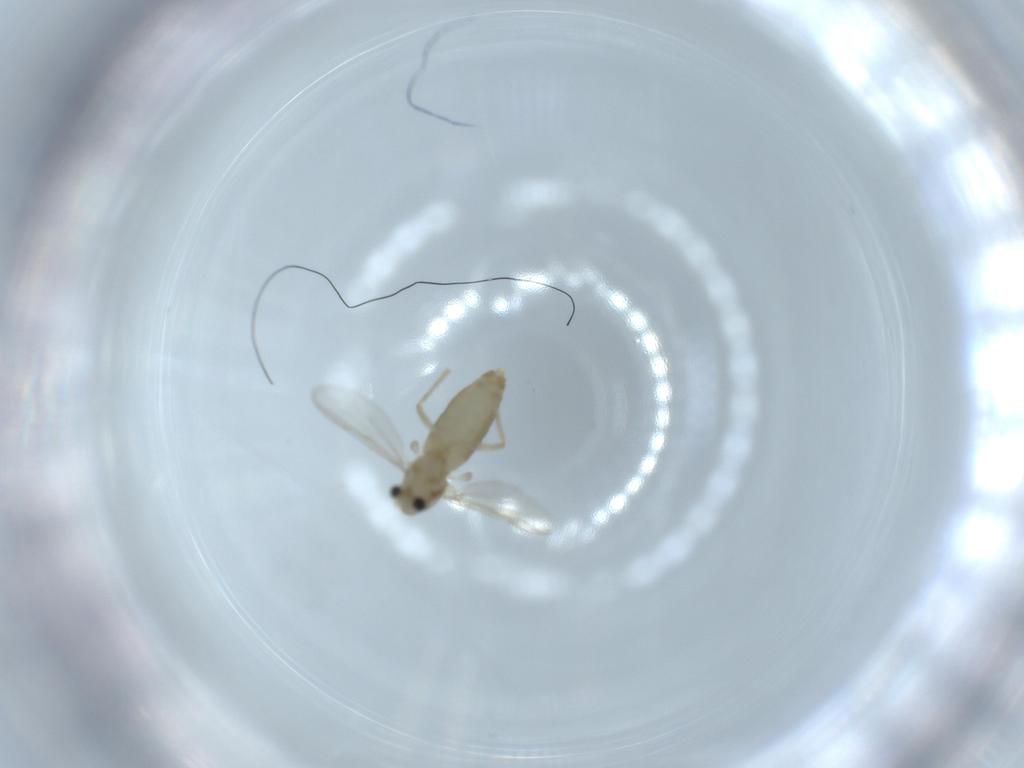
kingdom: Animalia
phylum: Arthropoda
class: Insecta
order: Diptera
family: Chironomidae
